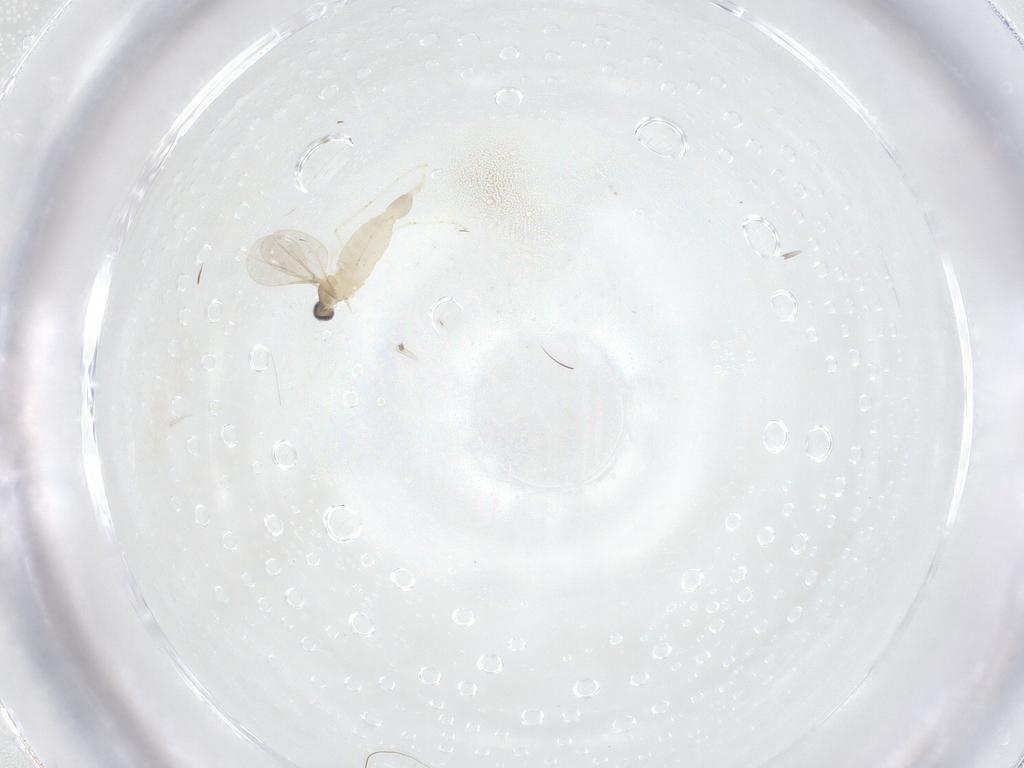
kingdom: Animalia
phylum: Arthropoda
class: Insecta
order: Diptera
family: Cecidomyiidae
